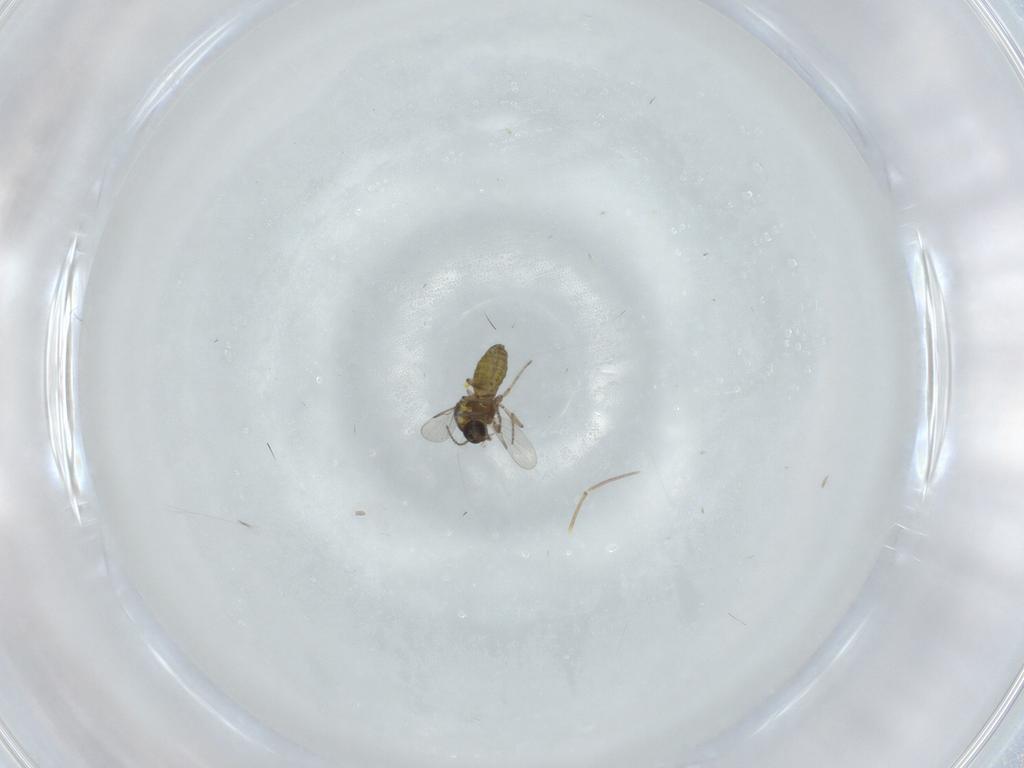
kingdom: Animalia
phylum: Arthropoda
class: Insecta
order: Diptera
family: Ceratopogonidae
